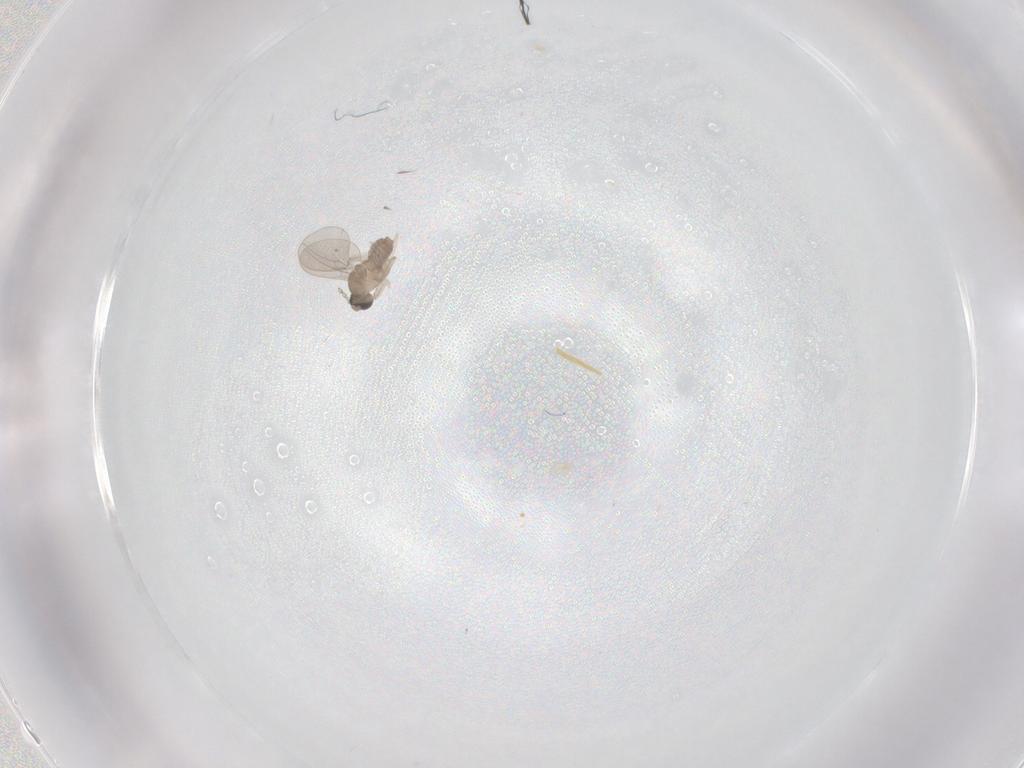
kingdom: Animalia
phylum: Arthropoda
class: Insecta
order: Diptera
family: Cecidomyiidae
